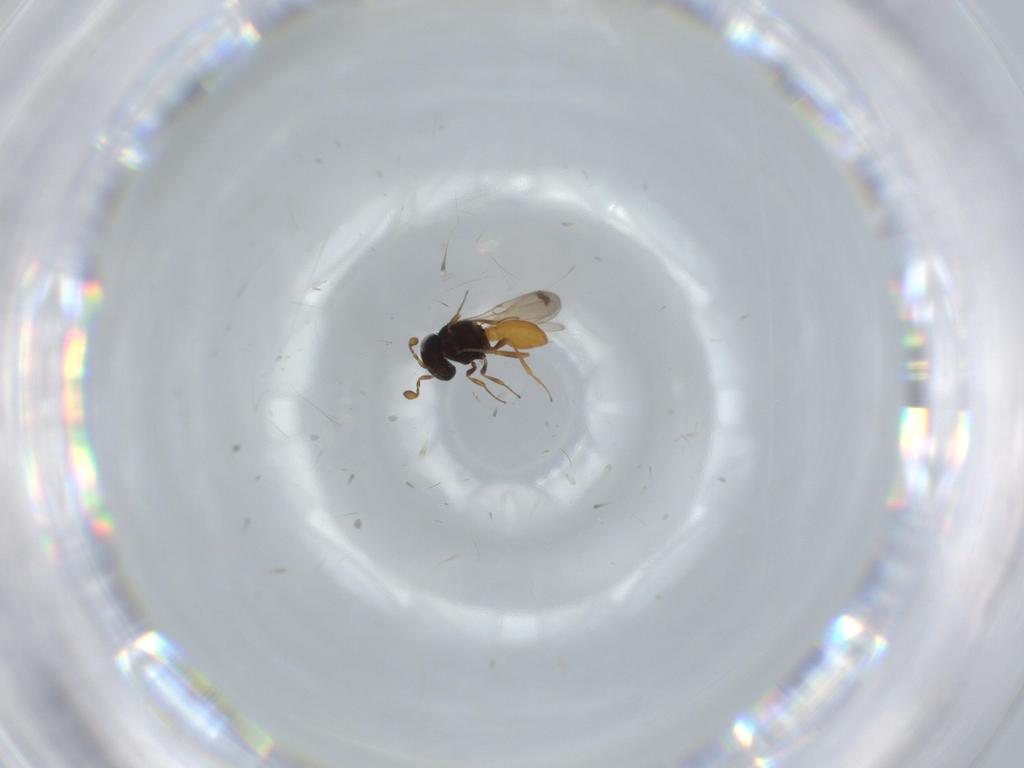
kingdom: Animalia
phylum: Arthropoda
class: Insecta
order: Hymenoptera
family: Scelionidae
